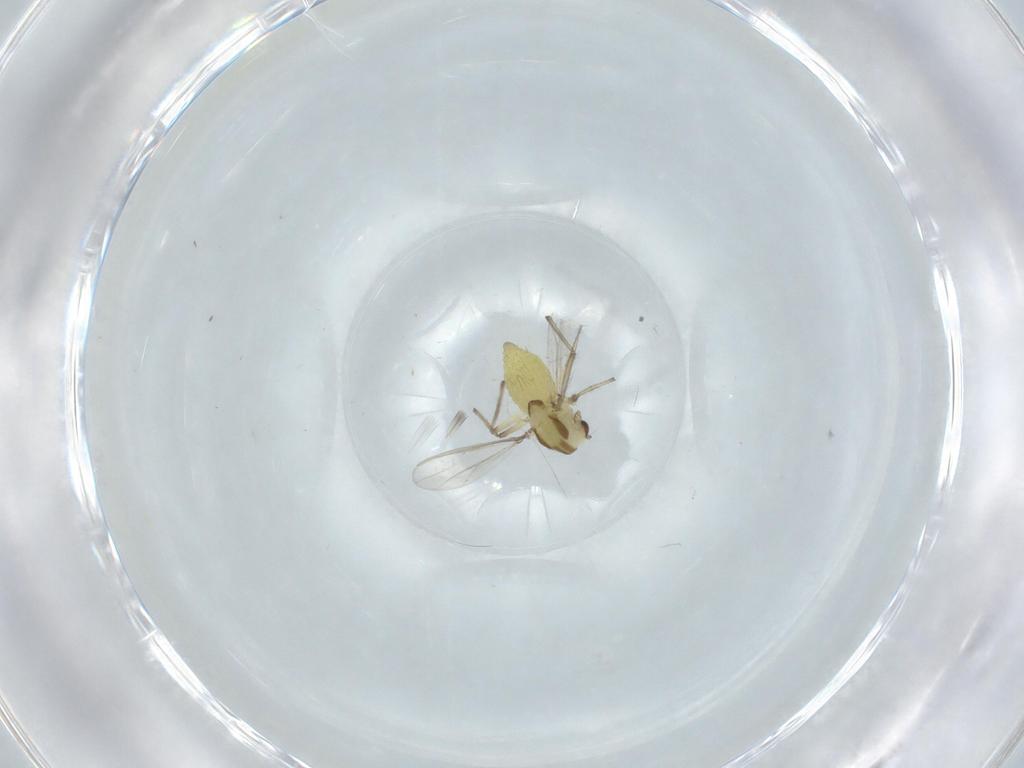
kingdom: Animalia
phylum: Arthropoda
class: Insecta
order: Diptera
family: Chironomidae
